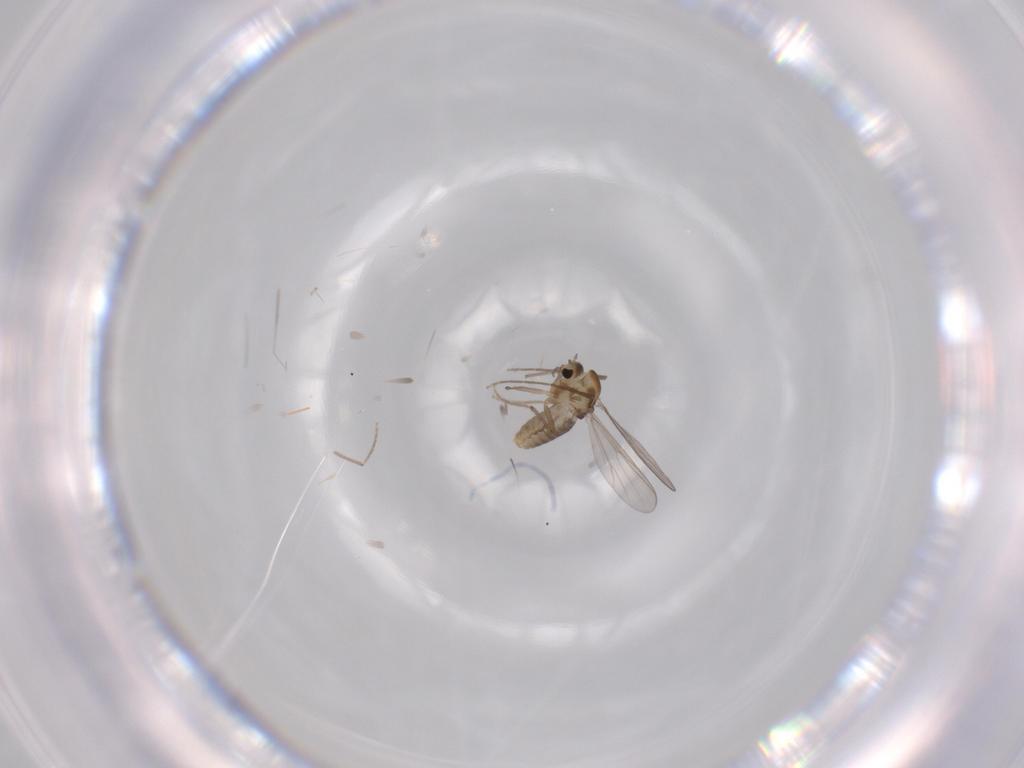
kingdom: Animalia
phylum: Arthropoda
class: Insecta
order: Diptera
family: Chironomidae
